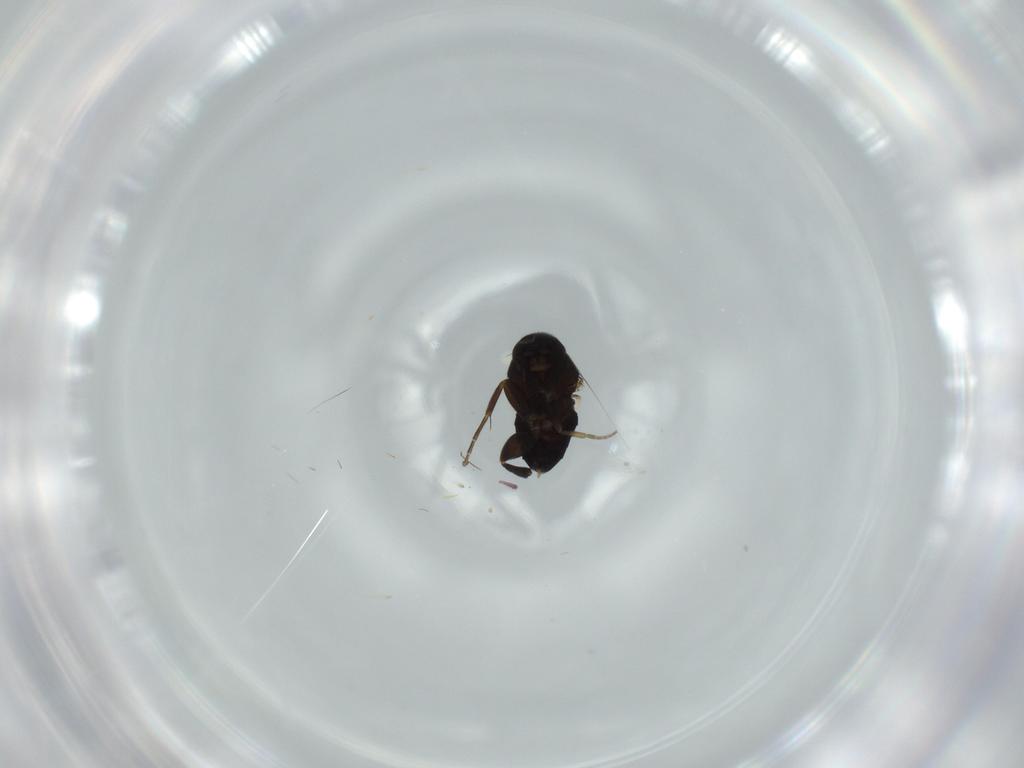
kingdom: Animalia
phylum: Arthropoda
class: Insecta
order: Diptera
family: Phoridae
